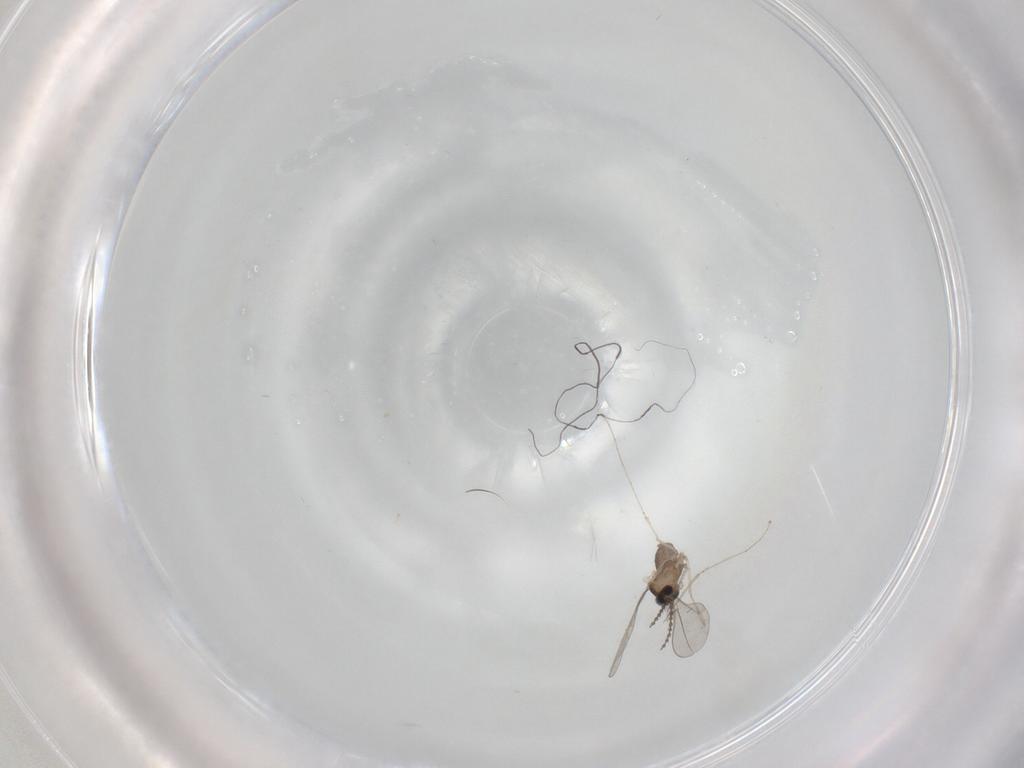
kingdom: Animalia
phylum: Arthropoda
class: Insecta
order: Diptera
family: Cecidomyiidae
